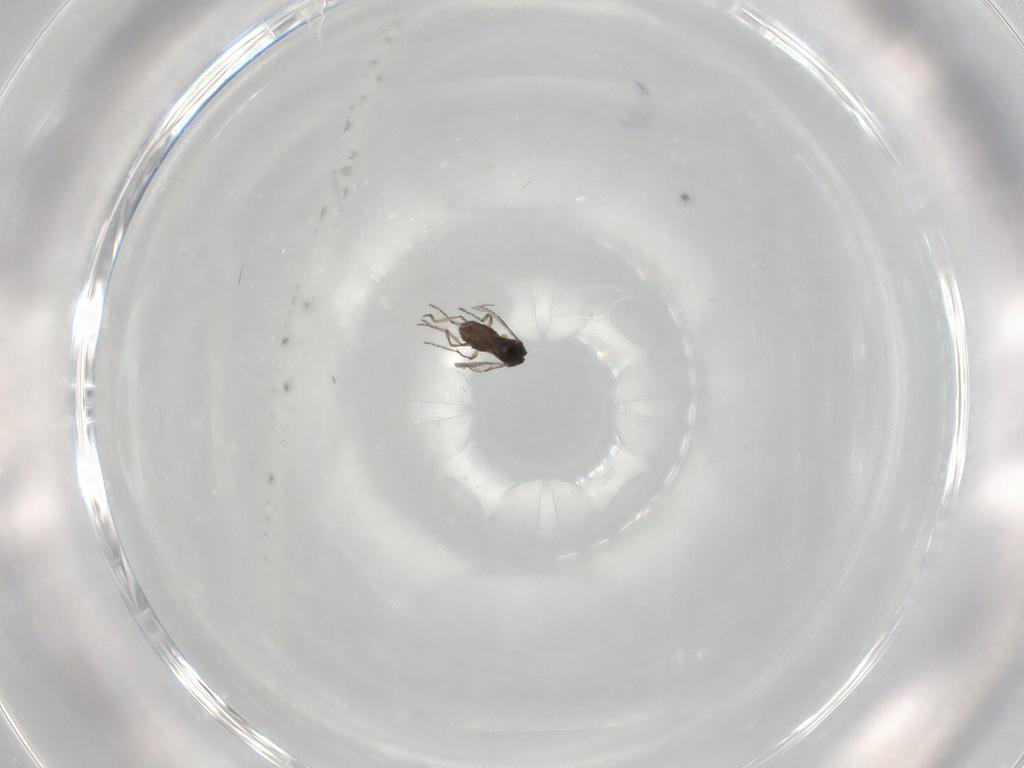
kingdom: Animalia
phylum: Arthropoda
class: Insecta
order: Diptera
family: Ceratopogonidae
